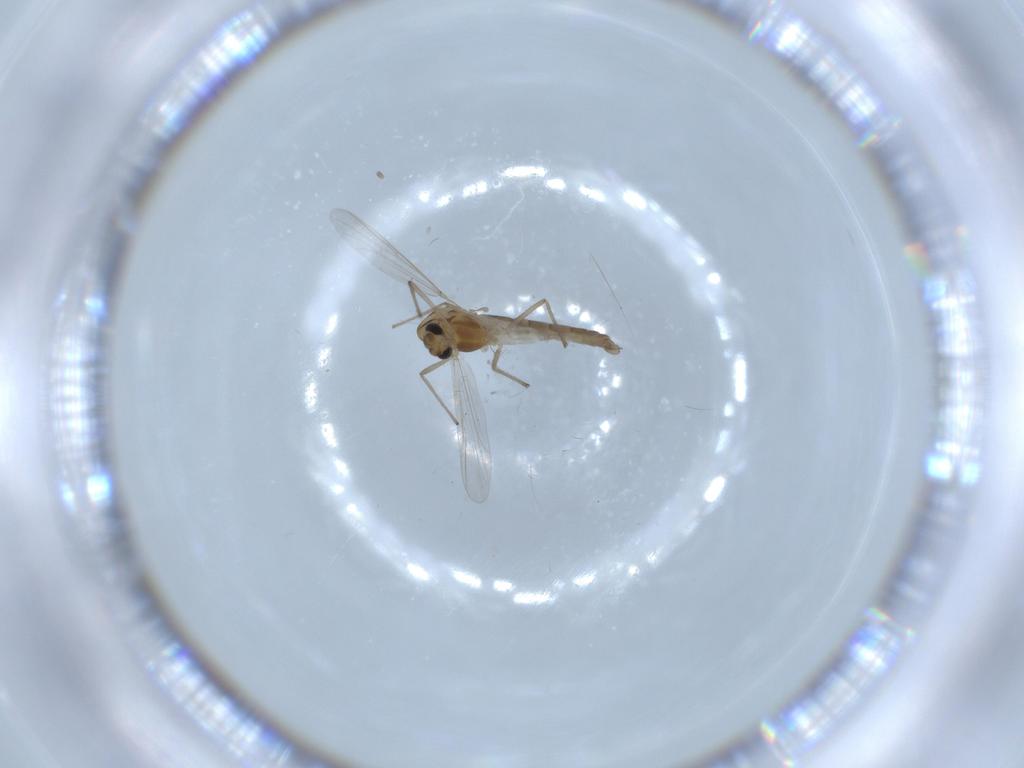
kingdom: Animalia
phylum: Arthropoda
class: Insecta
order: Diptera
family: Chironomidae
